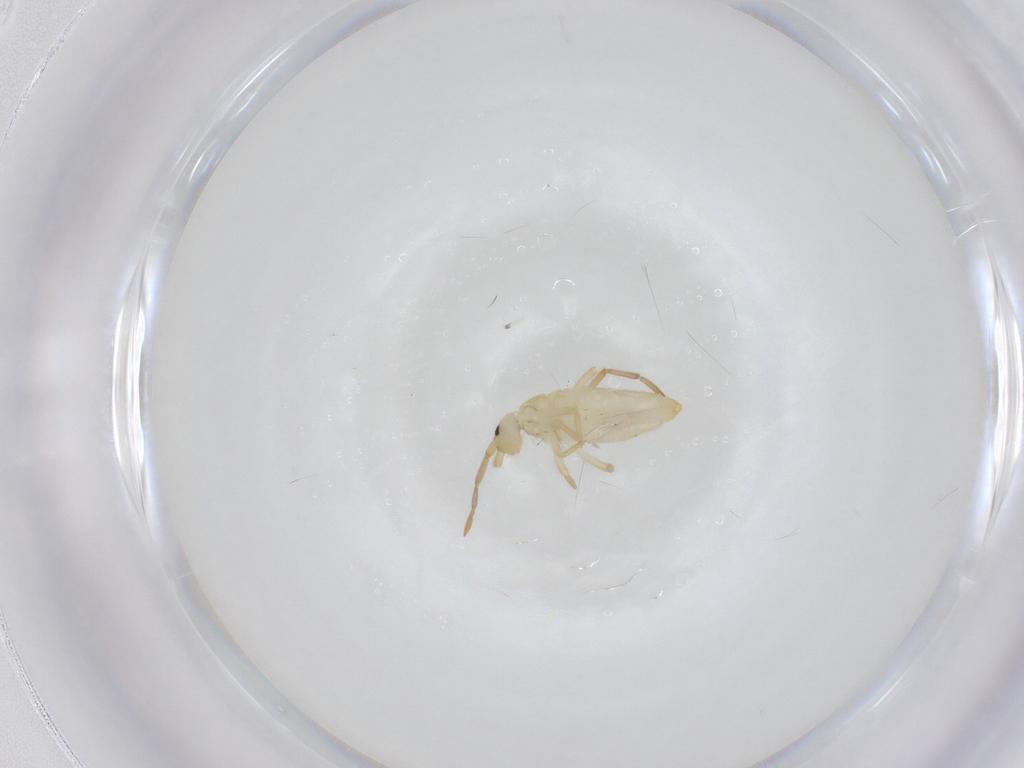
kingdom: Animalia
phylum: Arthropoda
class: Collembola
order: Entomobryomorpha
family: Entomobryidae
